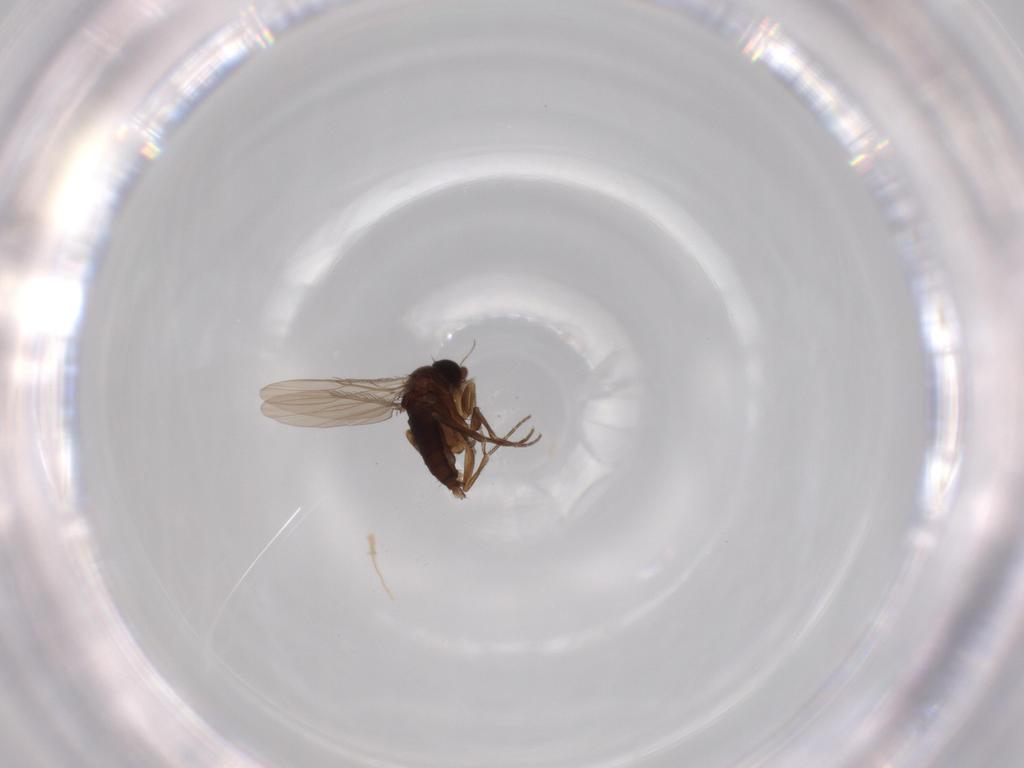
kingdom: Animalia
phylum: Arthropoda
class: Insecta
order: Diptera
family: Phoridae
